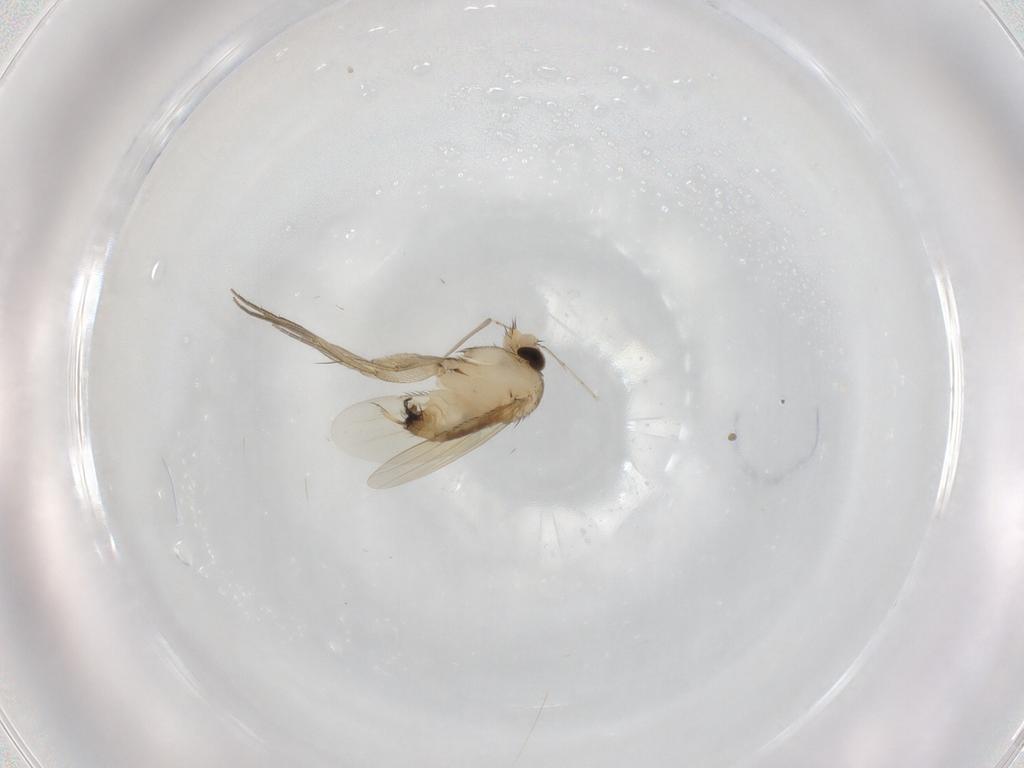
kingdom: Animalia
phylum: Arthropoda
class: Insecta
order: Diptera
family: Cecidomyiidae
